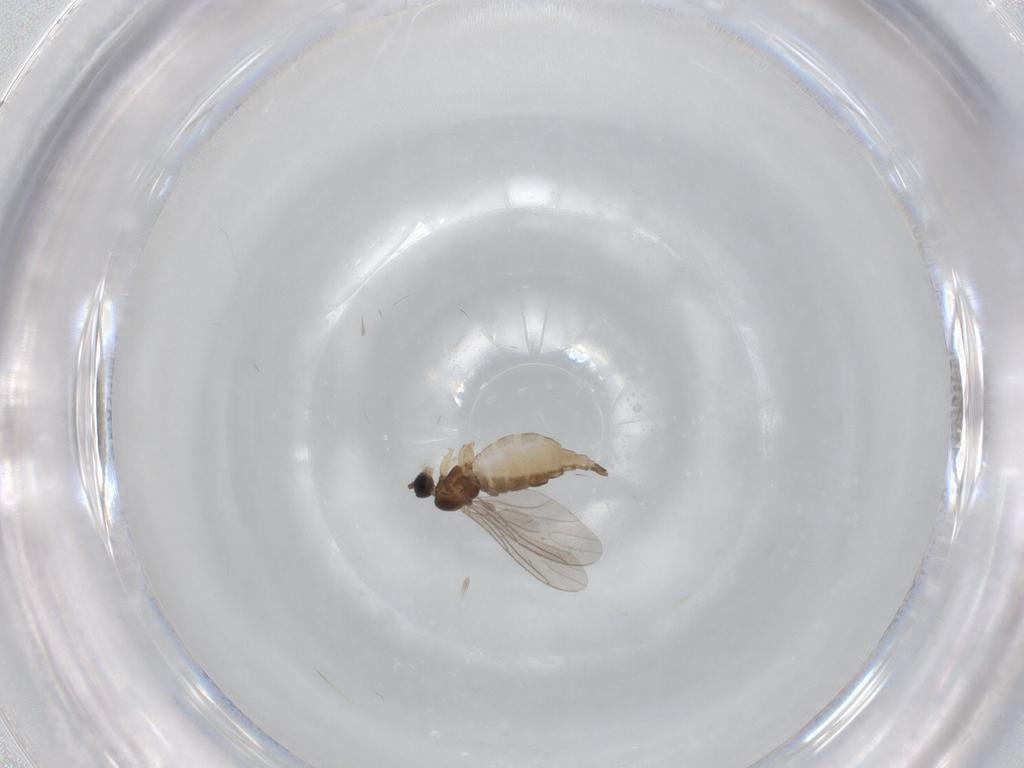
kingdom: Animalia
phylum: Arthropoda
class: Insecta
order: Diptera
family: Sciaridae
